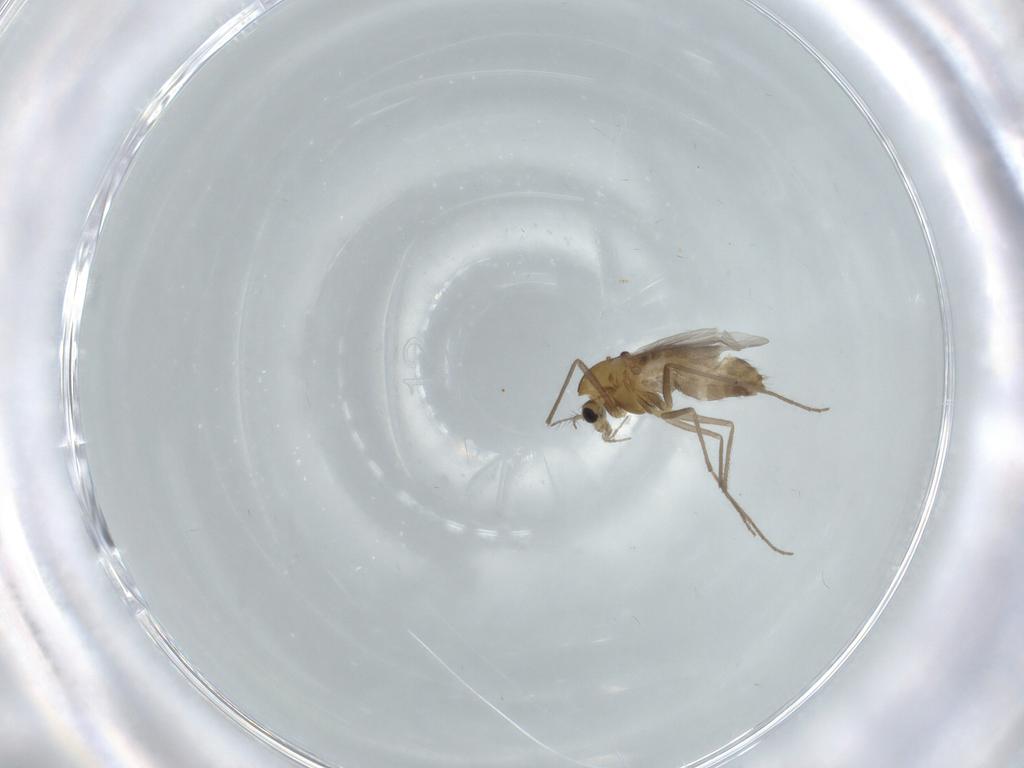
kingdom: Animalia
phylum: Arthropoda
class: Insecta
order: Diptera
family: Chironomidae
